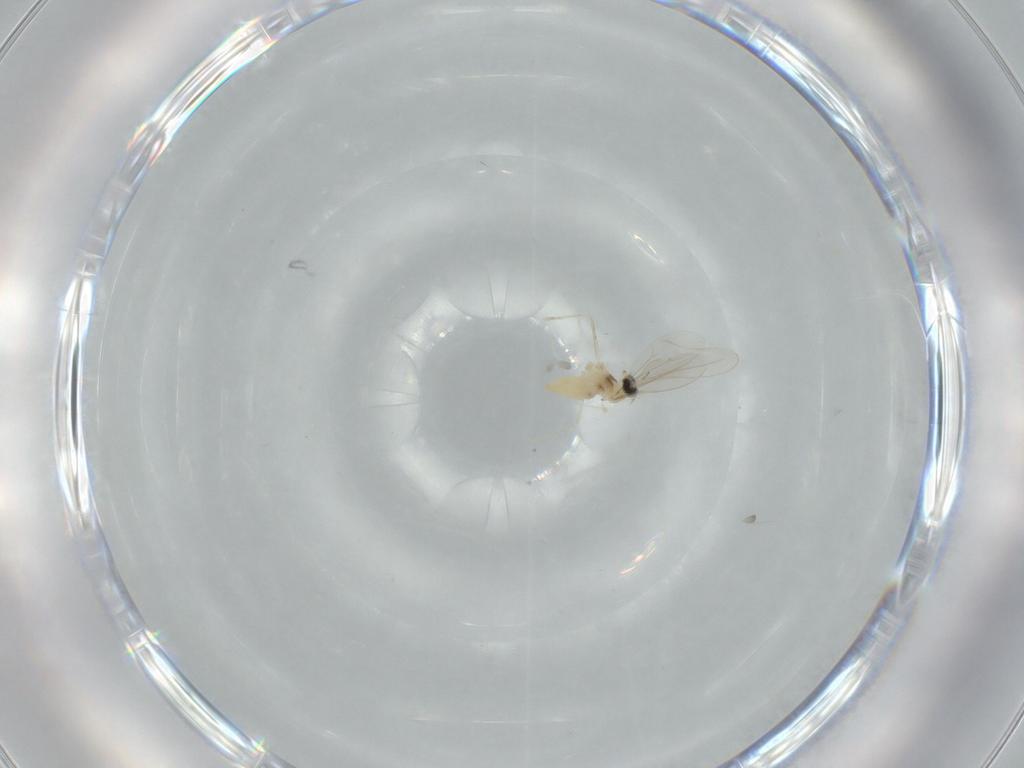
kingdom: Animalia
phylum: Arthropoda
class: Insecta
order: Diptera
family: Cecidomyiidae
